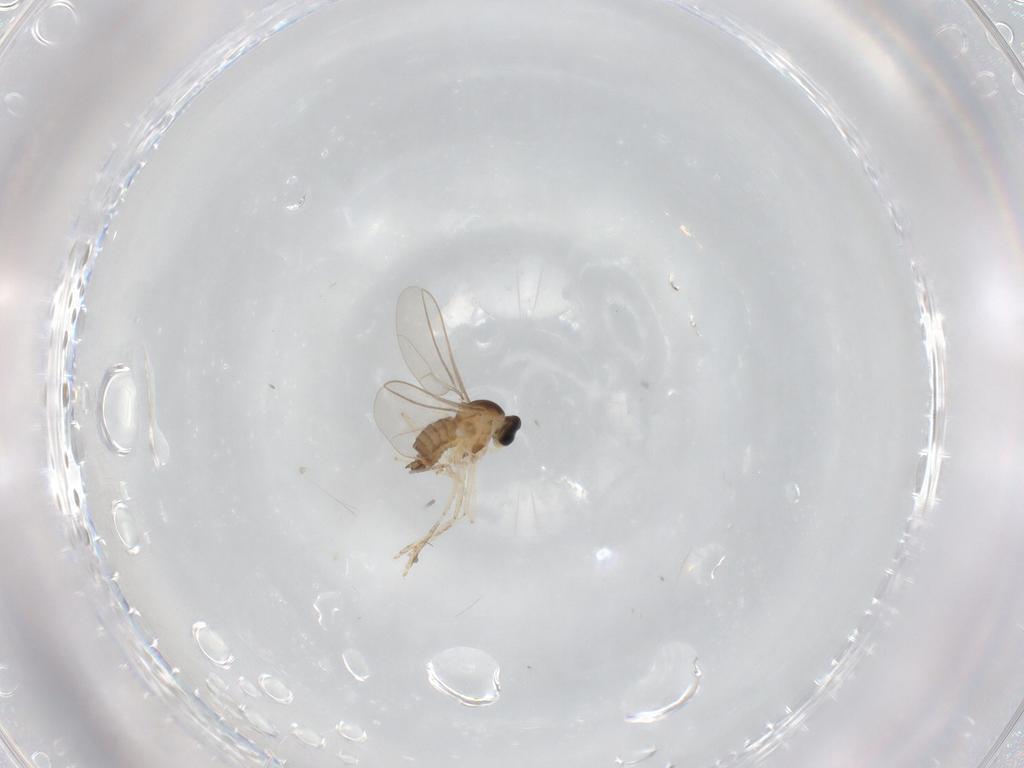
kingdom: Animalia
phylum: Arthropoda
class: Insecta
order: Diptera
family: Cecidomyiidae
